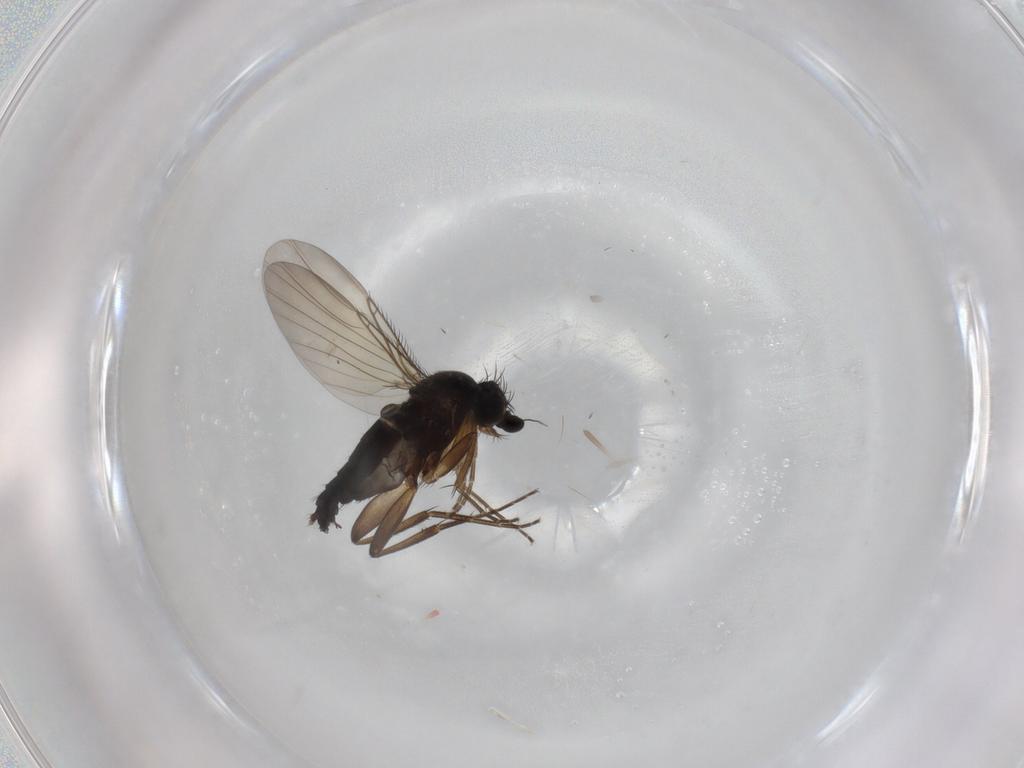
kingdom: Animalia
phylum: Arthropoda
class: Insecta
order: Diptera
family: Phoridae
